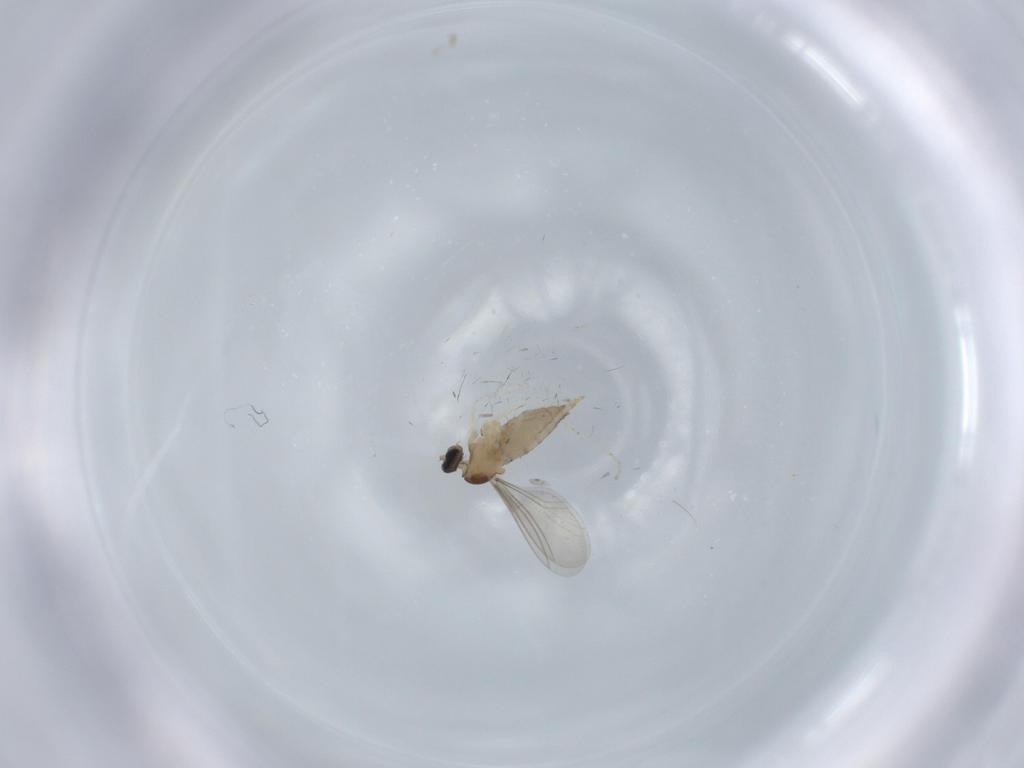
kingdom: Animalia
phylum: Arthropoda
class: Insecta
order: Diptera
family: Cecidomyiidae
